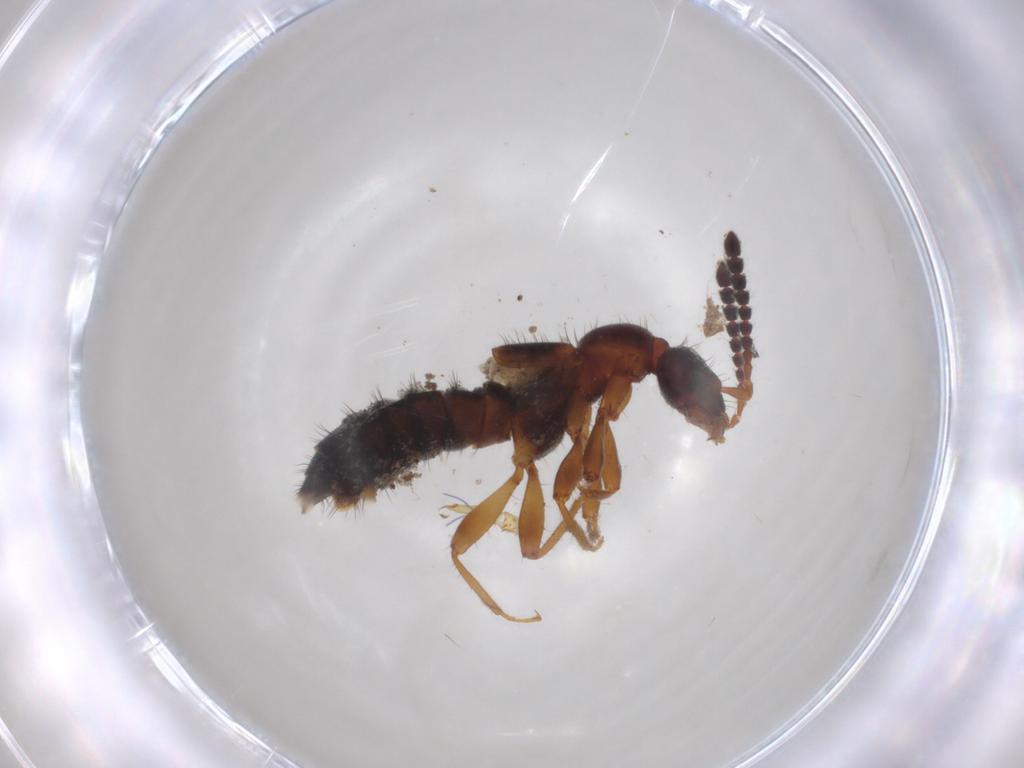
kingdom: Animalia
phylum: Arthropoda
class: Insecta
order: Coleoptera
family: Staphylinidae
